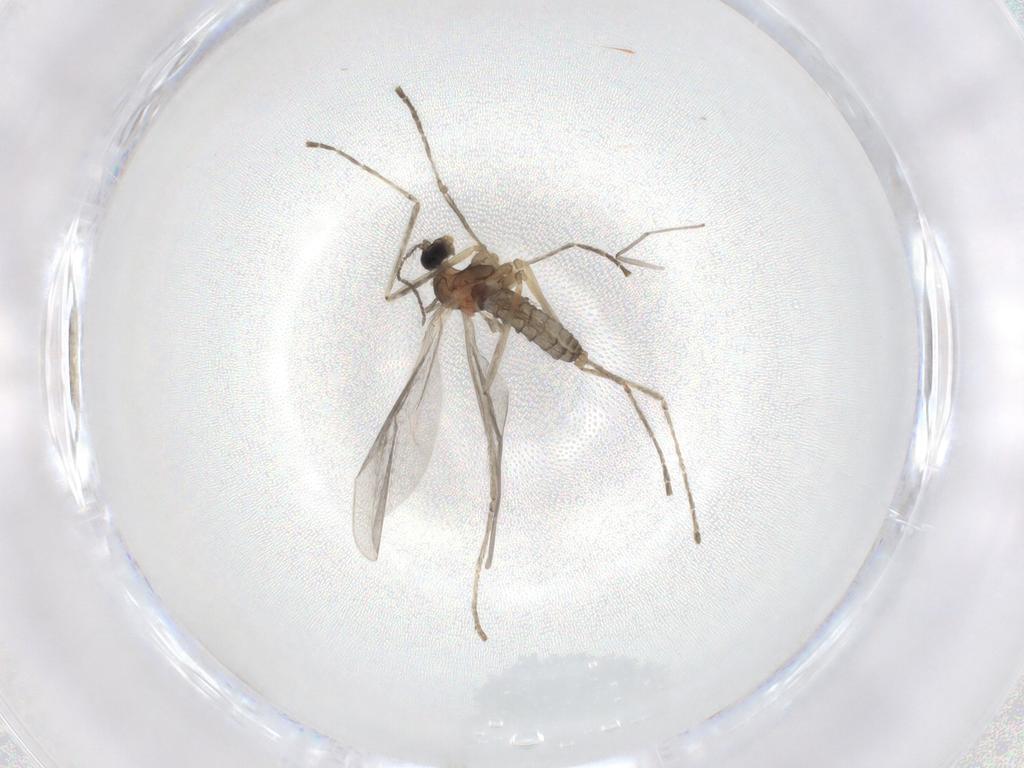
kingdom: Animalia
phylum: Arthropoda
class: Insecta
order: Diptera
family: Cecidomyiidae
